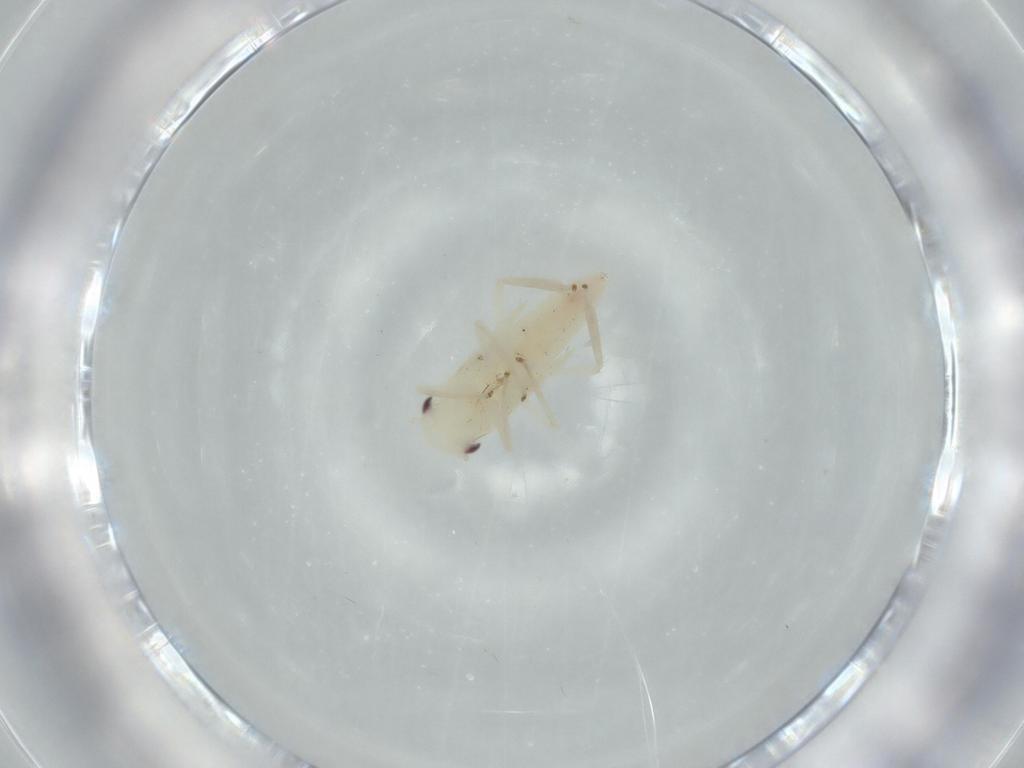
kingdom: Animalia
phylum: Arthropoda
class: Insecta
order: Hemiptera
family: Cicadellidae
